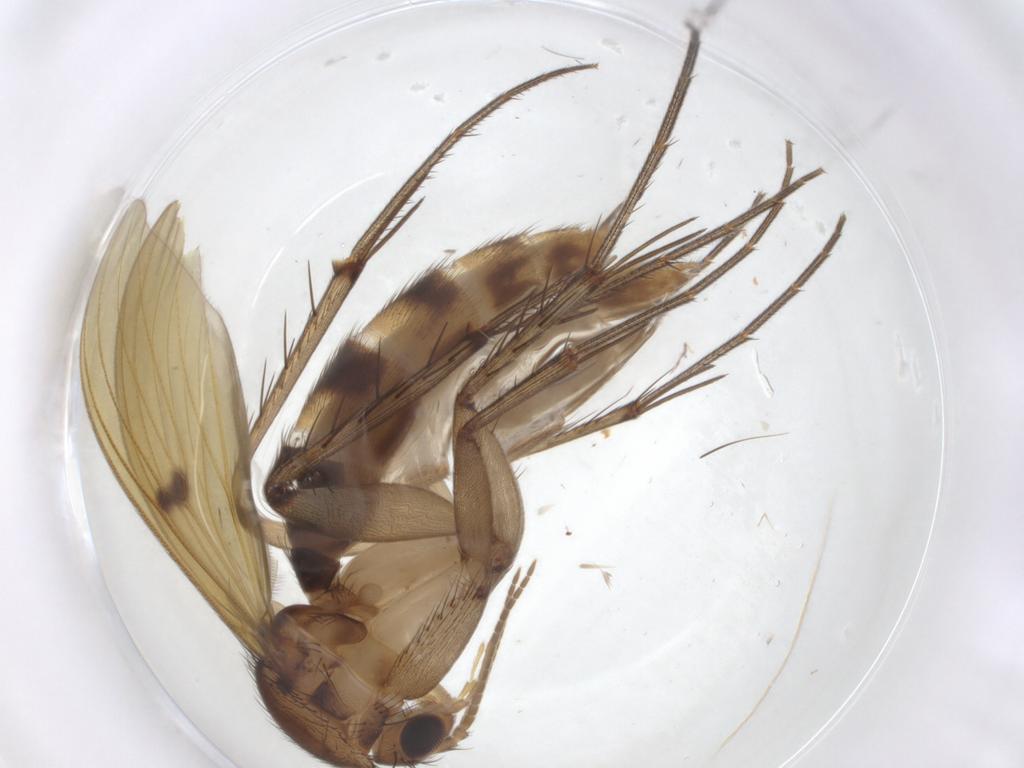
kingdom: Animalia
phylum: Arthropoda
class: Insecta
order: Diptera
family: Mycetophilidae
